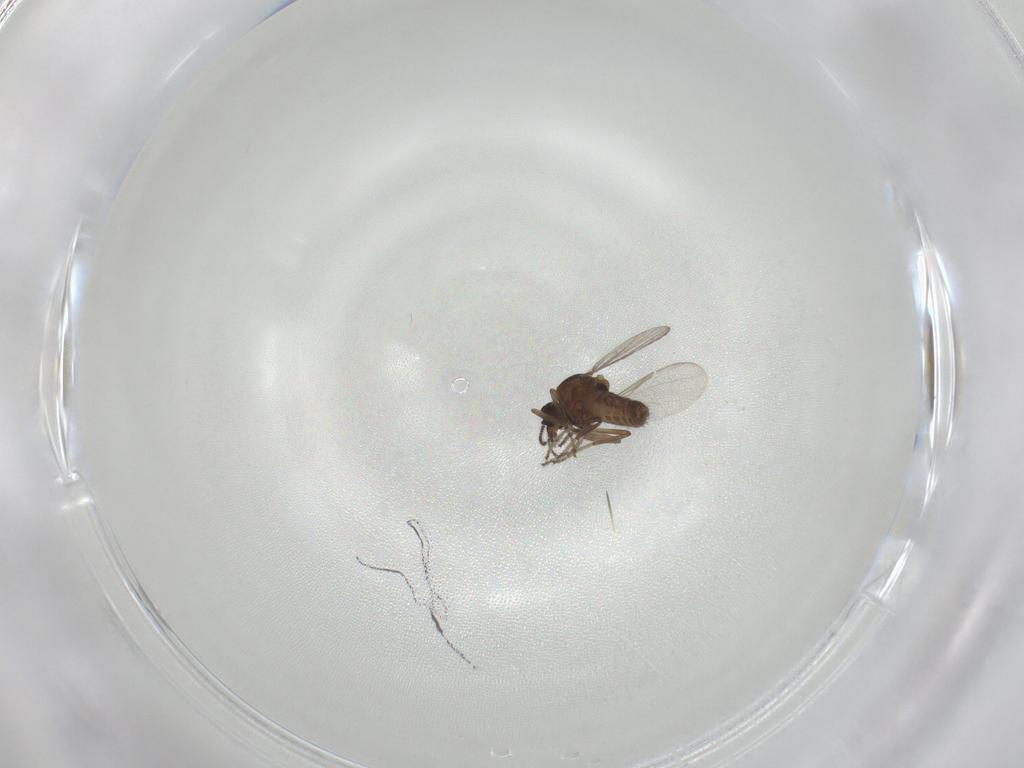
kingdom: Animalia
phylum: Arthropoda
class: Insecta
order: Diptera
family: Ceratopogonidae
